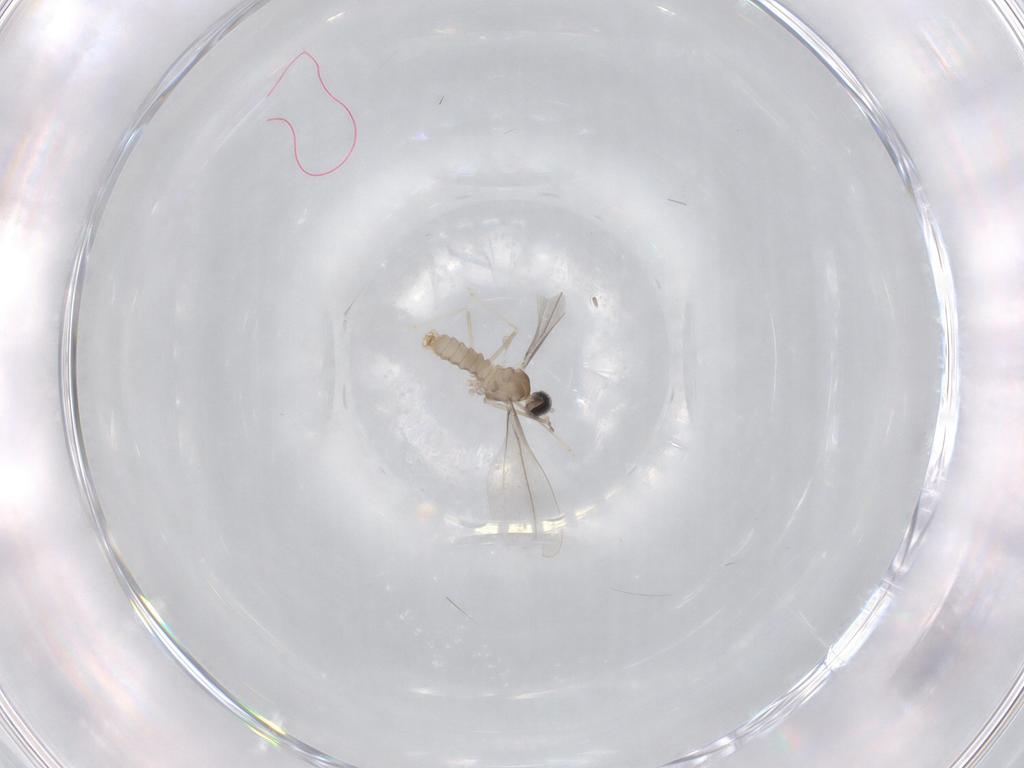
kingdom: Animalia
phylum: Arthropoda
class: Insecta
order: Diptera
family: Cecidomyiidae
